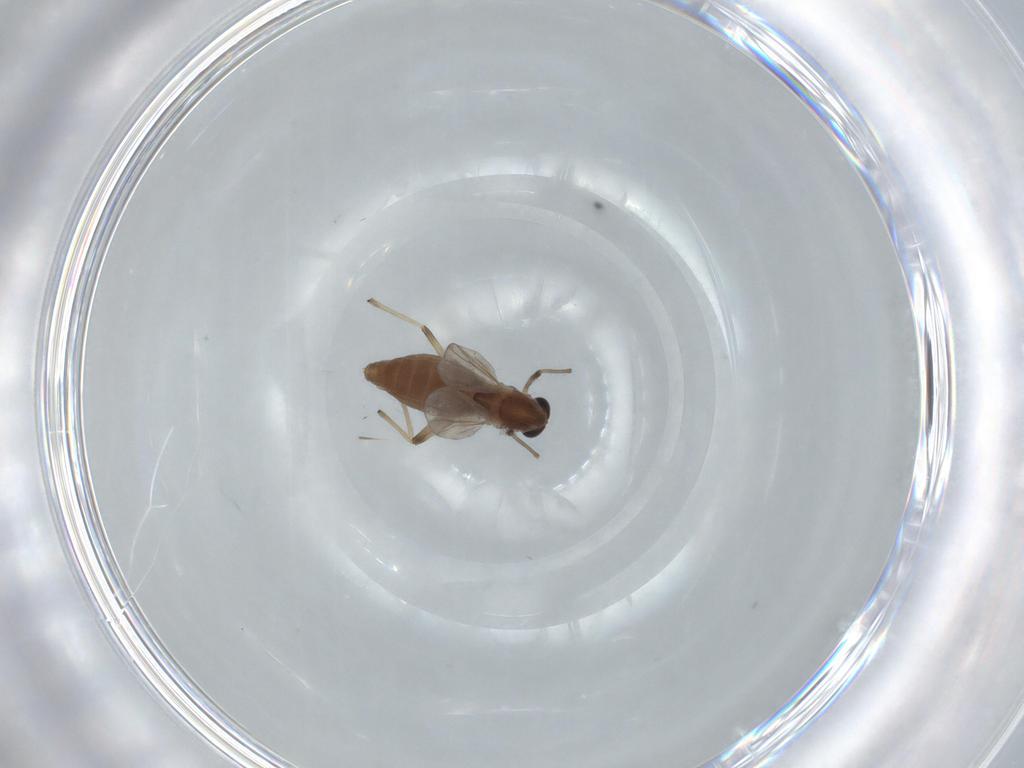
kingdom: Animalia
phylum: Arthropoda
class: Insecta
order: Diptera
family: Chironomidae
